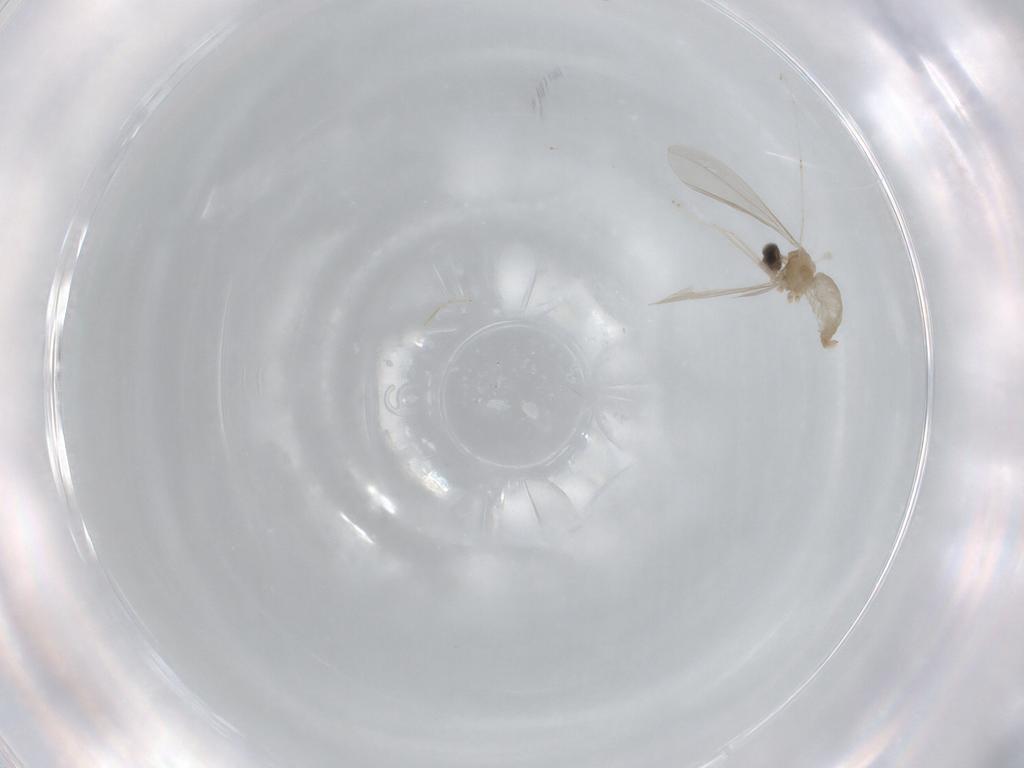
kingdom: Animalia
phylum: Arthropoda
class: Insecta
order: Diptera
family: Cecidomyiidae
